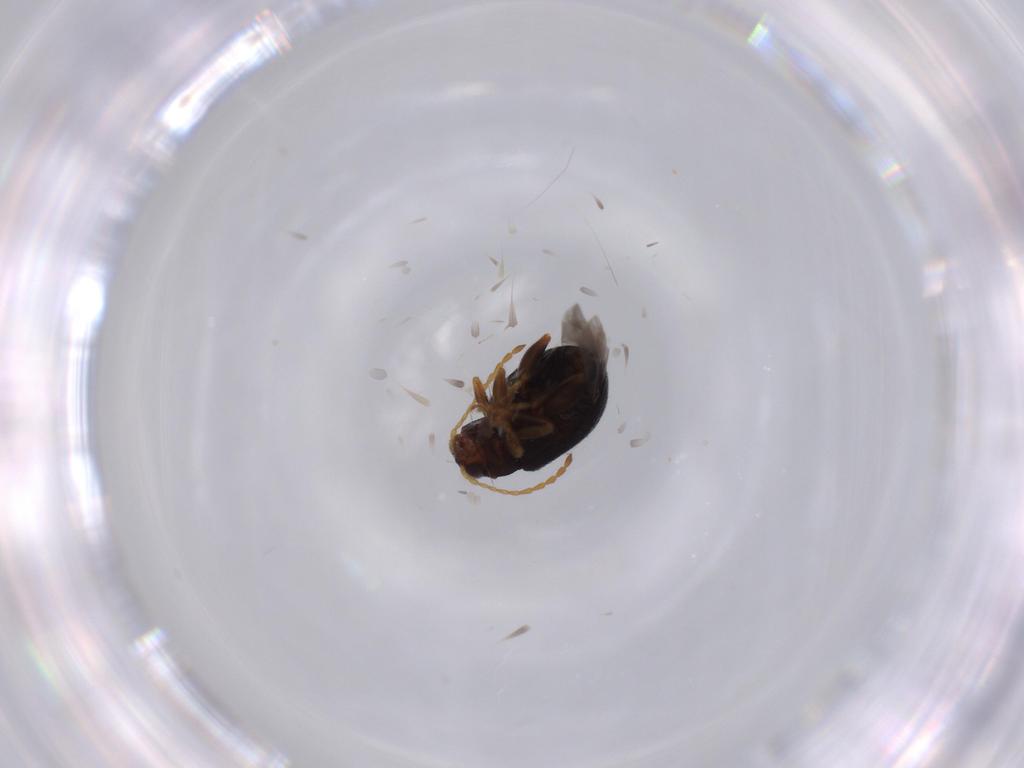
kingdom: Animalia
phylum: Arthropoda
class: Insecta
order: Coleoptera
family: Chrysomelidae
